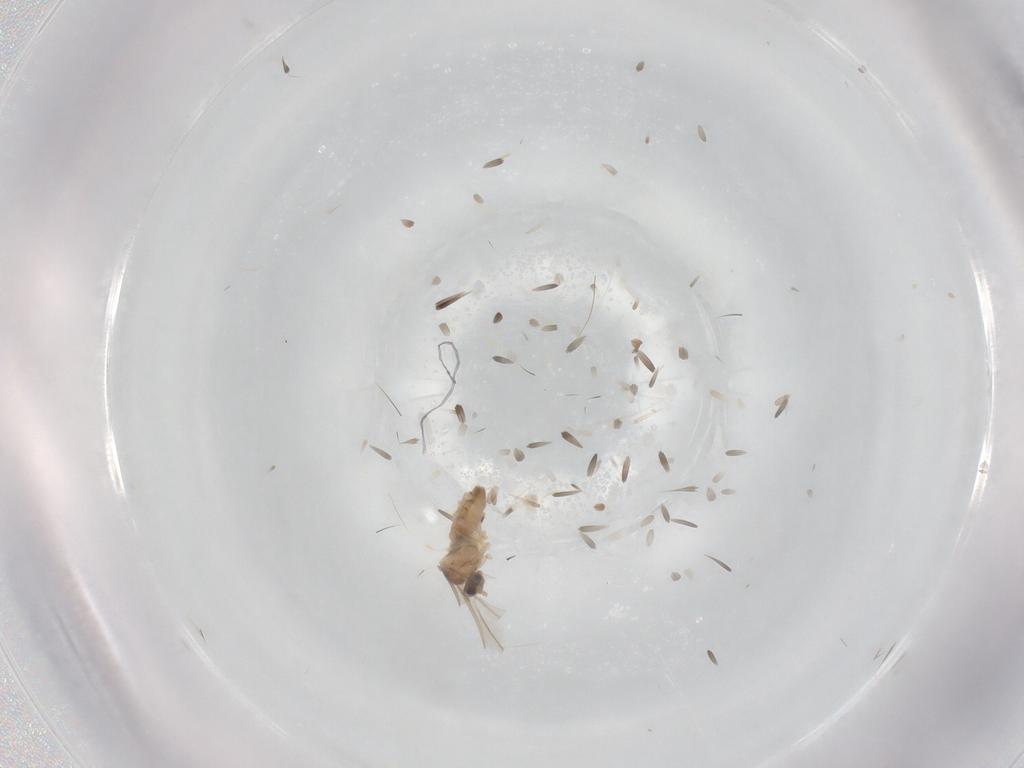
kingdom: Animalia
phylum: Arthropoda
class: Insecta
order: Diptera
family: Cecidomyiidae
